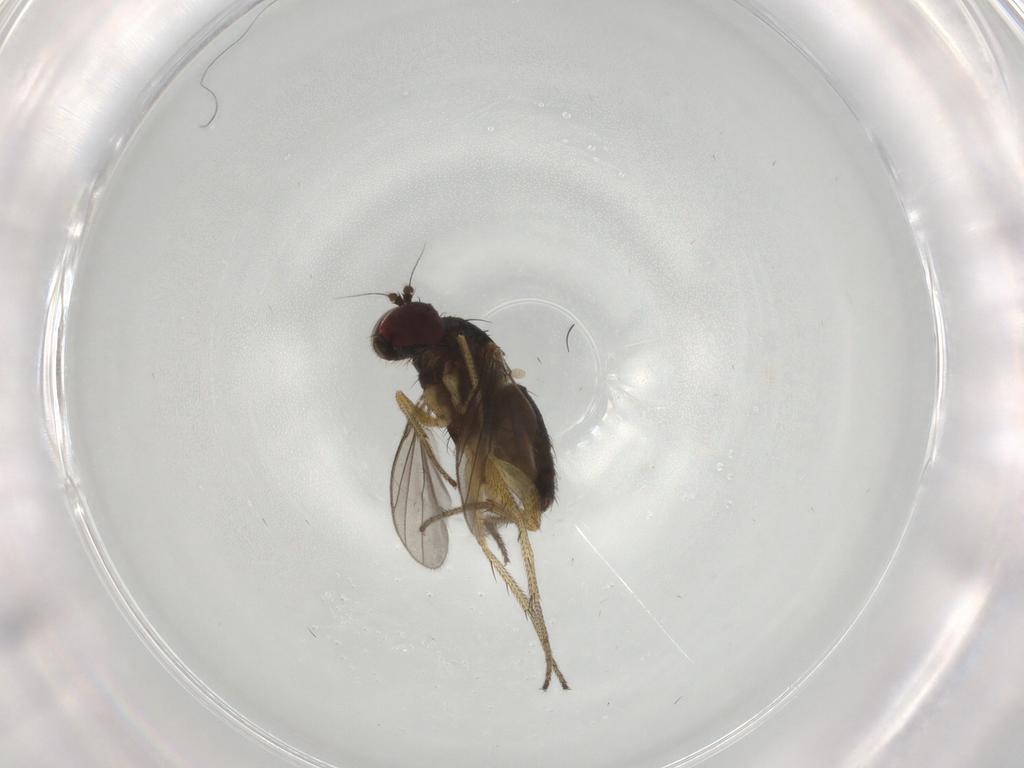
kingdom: Animalia
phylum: Arthropoda
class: Insecta
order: Diptera
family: Dolichopodidae
